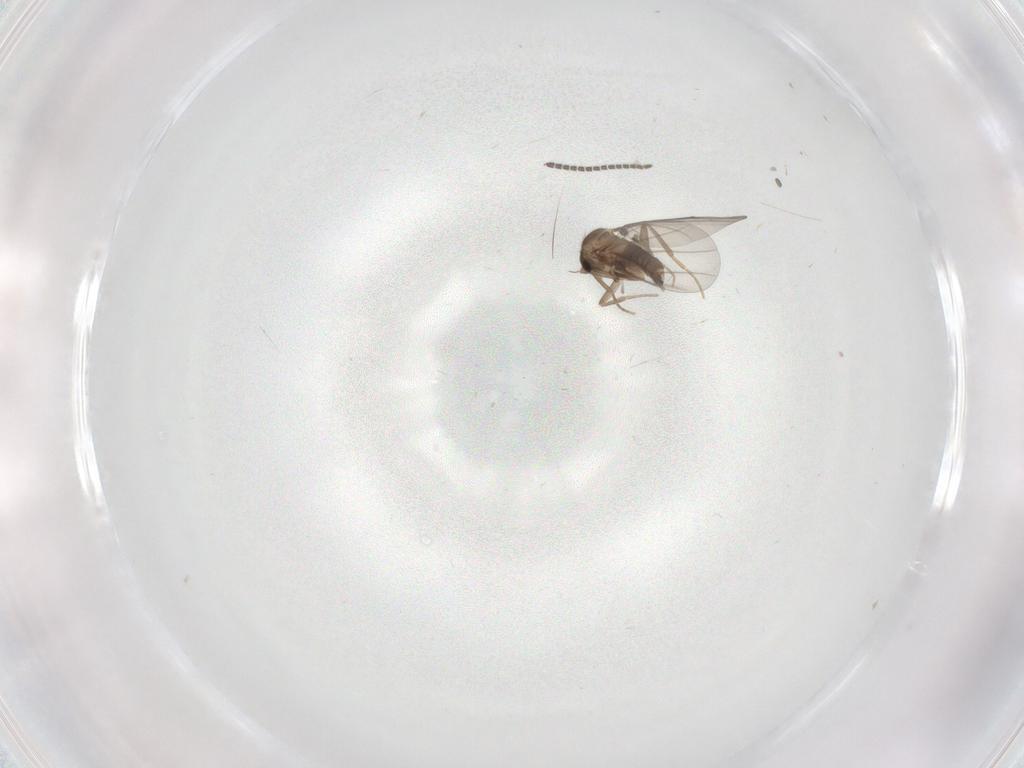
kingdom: Animalia
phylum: Arthropoda
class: Insecta
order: Diptera
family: Sciaridae
